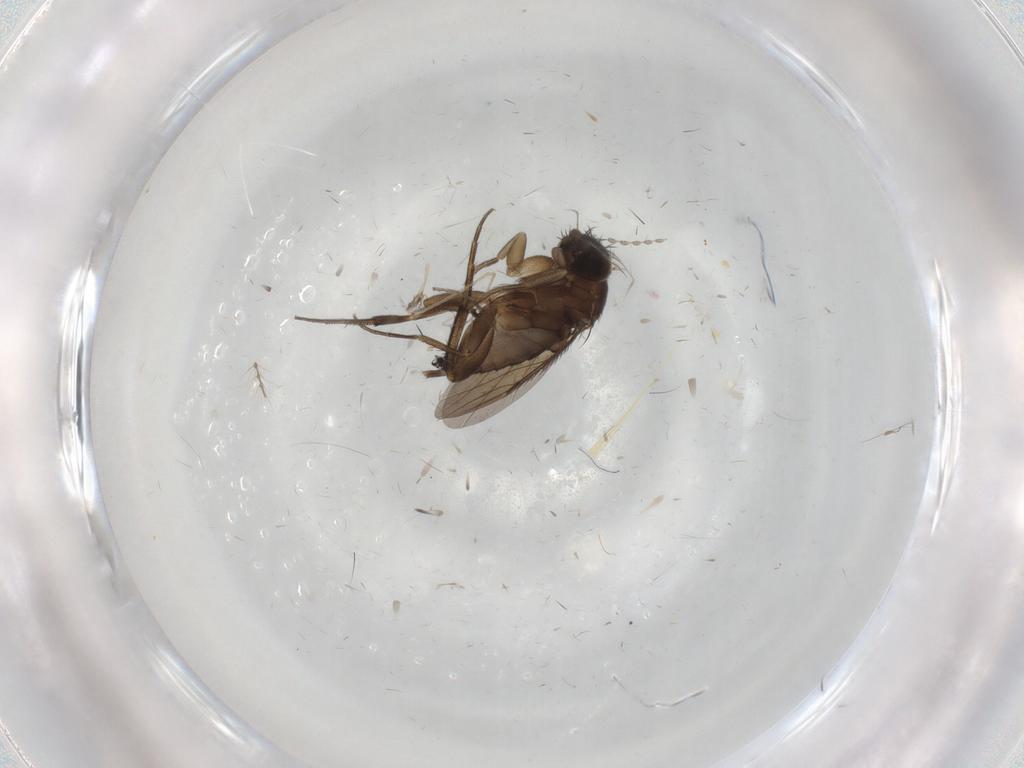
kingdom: Animalia
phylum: Arthropoda
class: Insecta
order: Diptera
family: Phoridae
